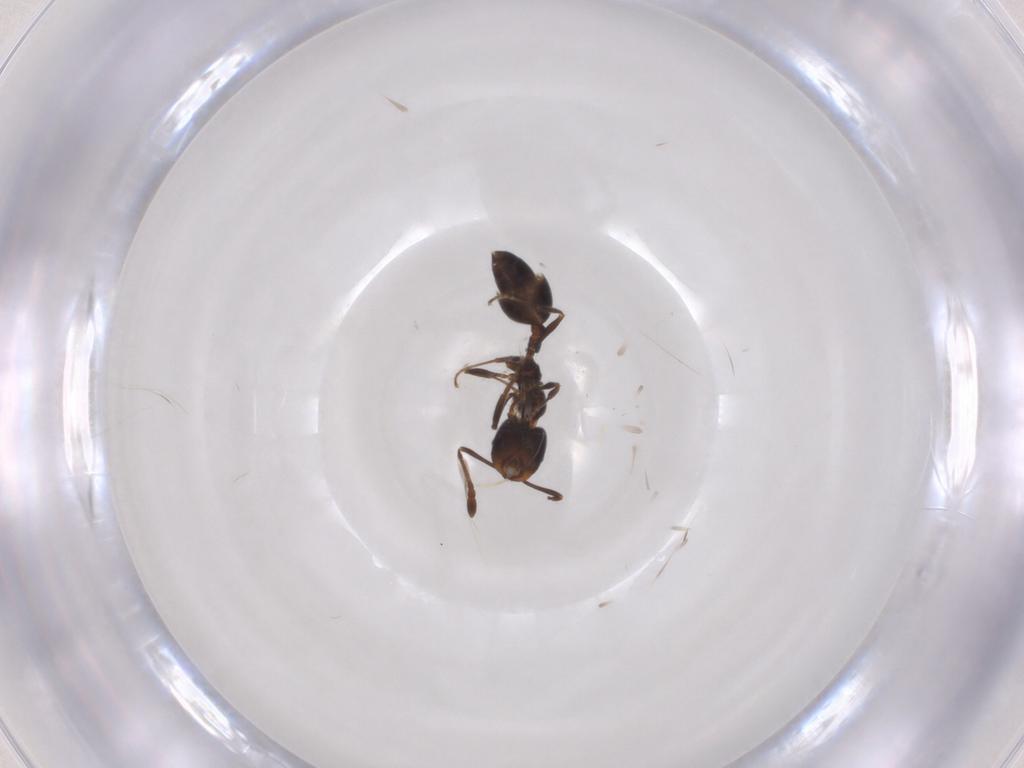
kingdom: Animalia
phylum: Arthropoda
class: Insecta
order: Hymenoptera
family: Formicidae
